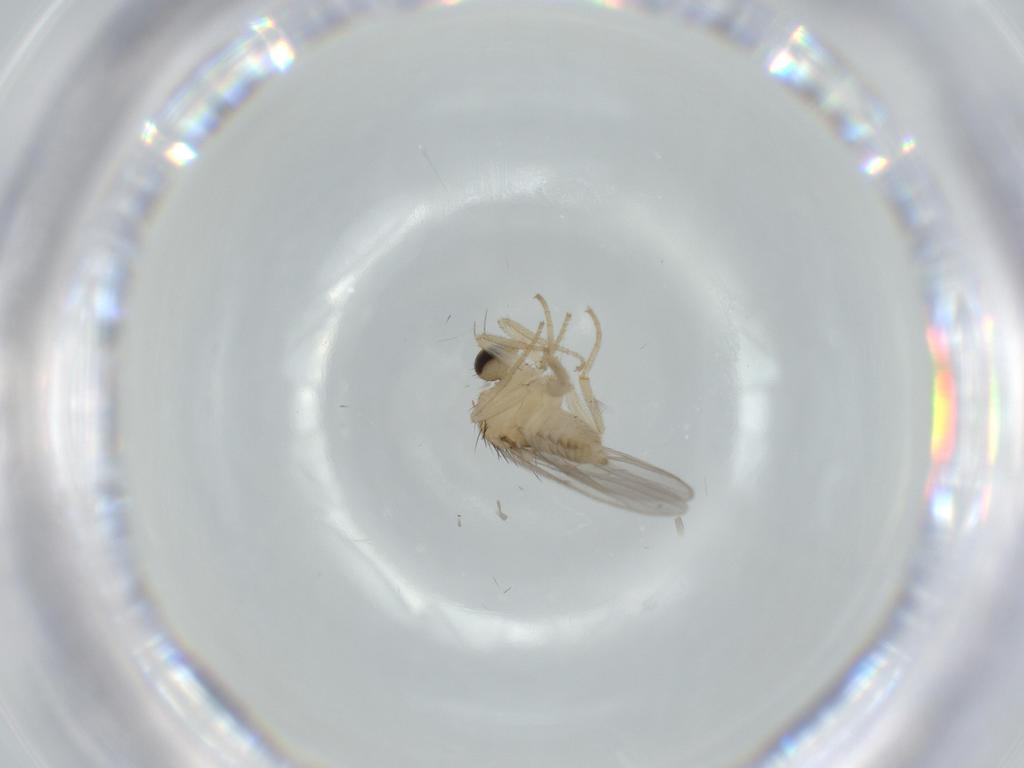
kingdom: Animalia
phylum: Arthropoda
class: Insecta
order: Diptera
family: Hybotidae
